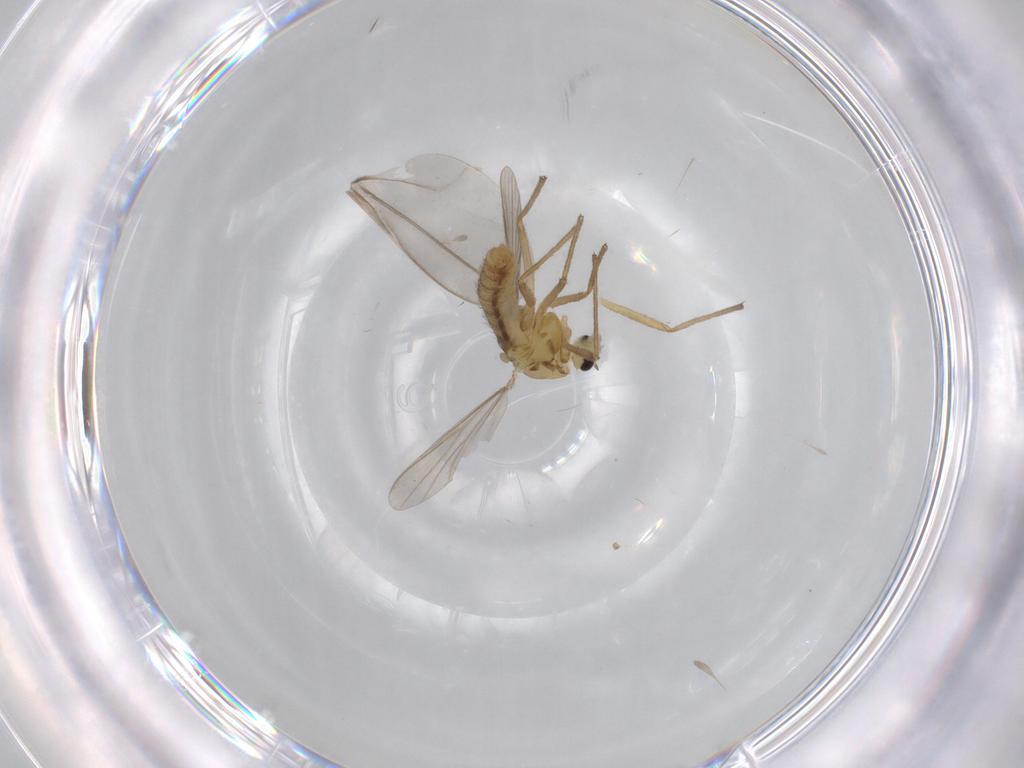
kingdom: Animalia
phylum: Arthropoda
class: Insecta
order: Diptera
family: Cecidomyiidae
